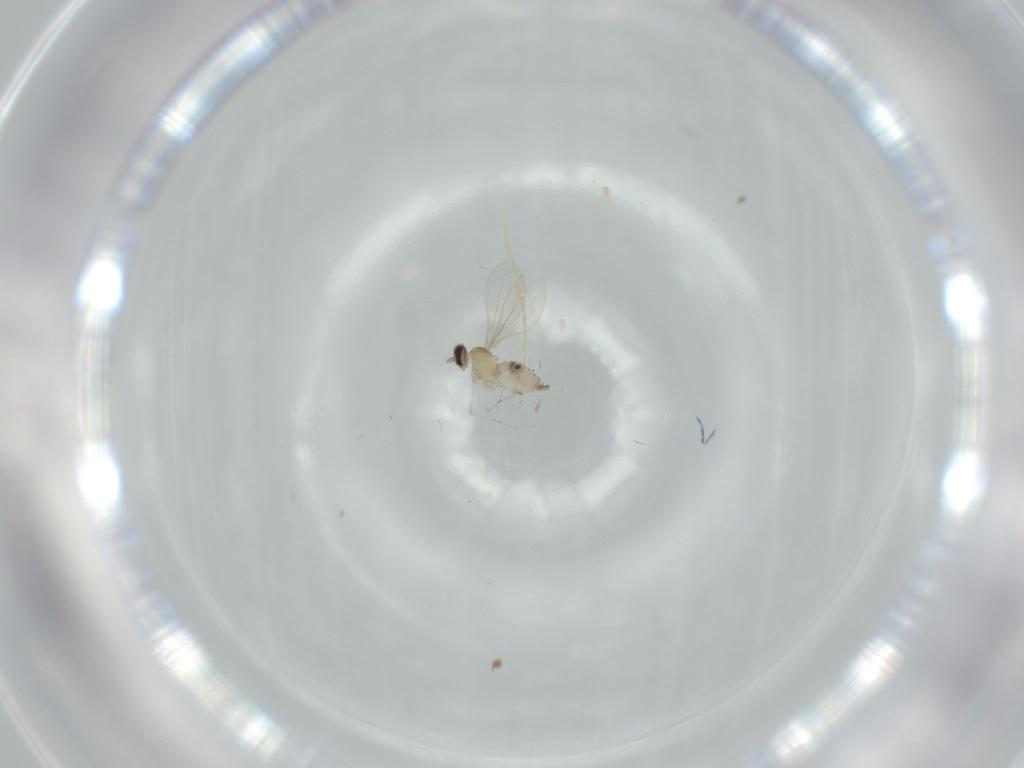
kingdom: Animalia
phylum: Arthropoda
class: Insecta
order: Diptera
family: Cecidomyiidae
